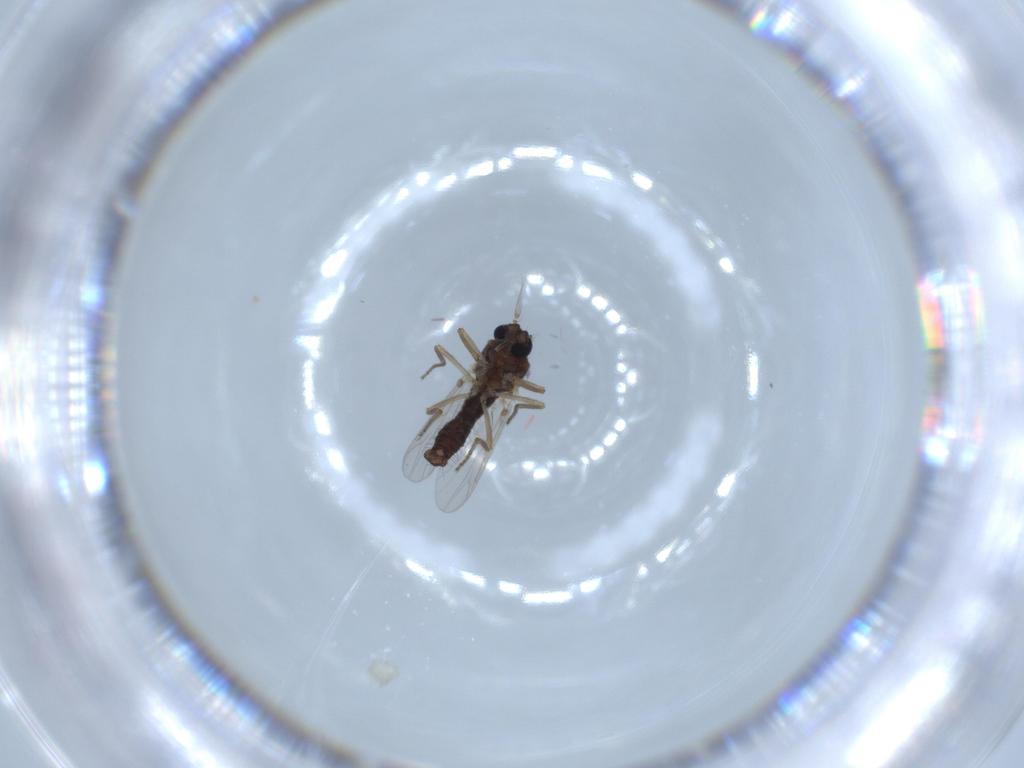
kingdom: Animalia
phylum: Arthropoda
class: Insecta
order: Diptera
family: Ceratopogonidae
